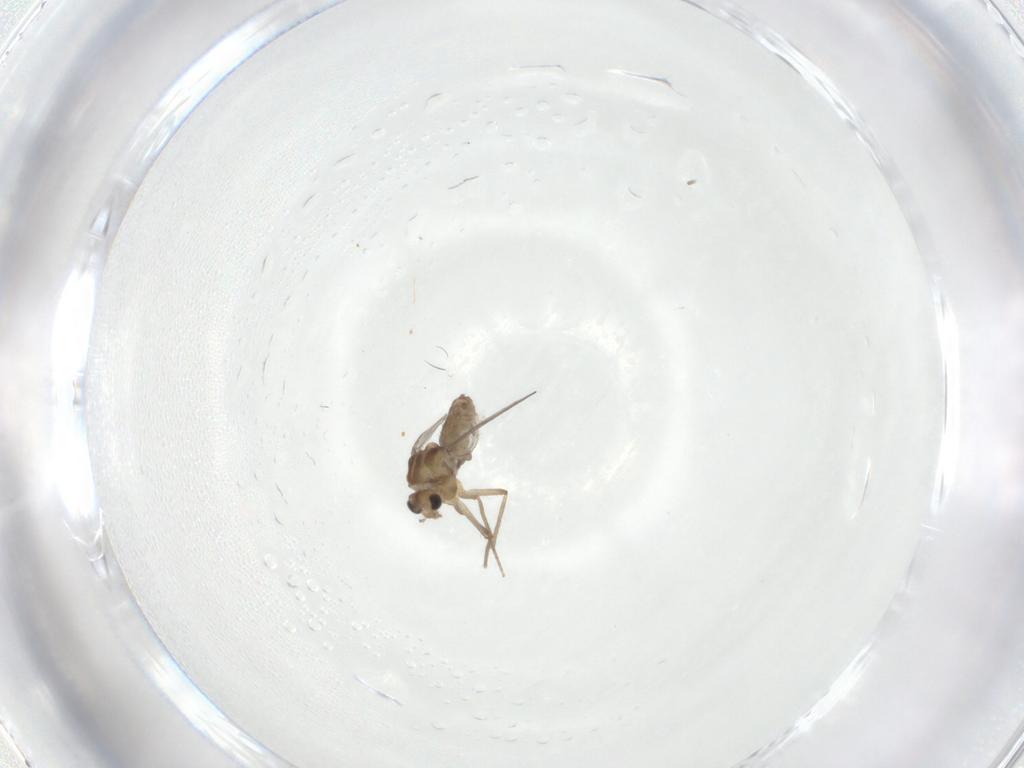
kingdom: Animalia
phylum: Arthropoda
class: Insecta
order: Diptera
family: Chironomidae
